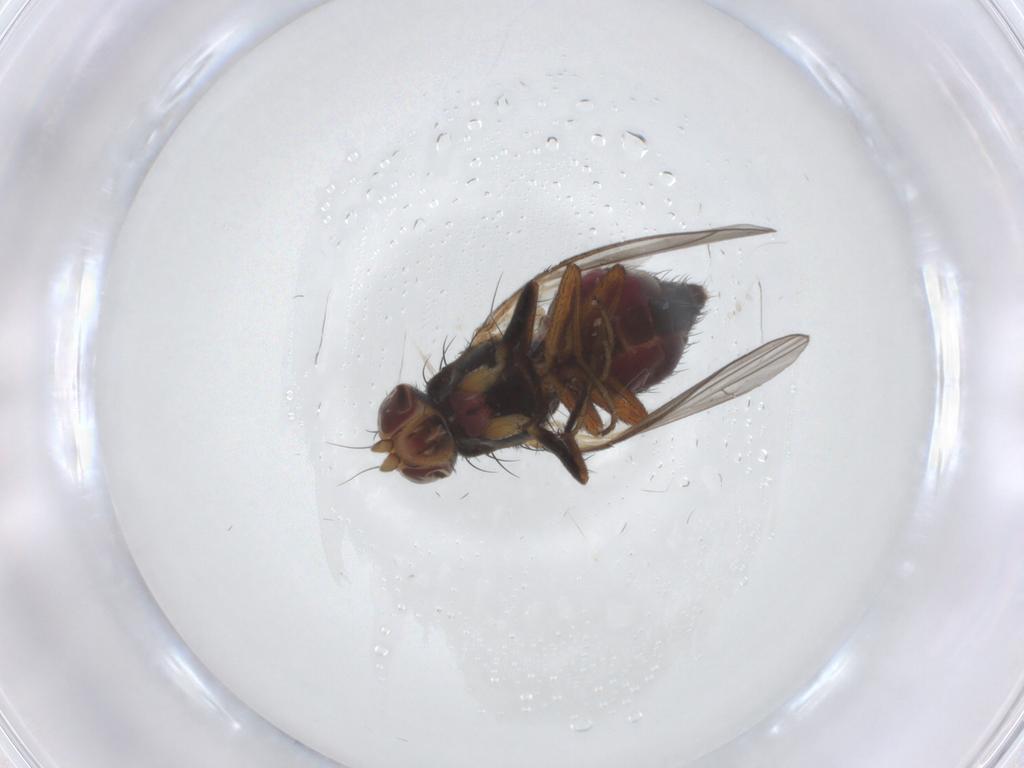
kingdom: Animalia
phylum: Arthropoda
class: Insecta
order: Diptera
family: Heleomyzidae
